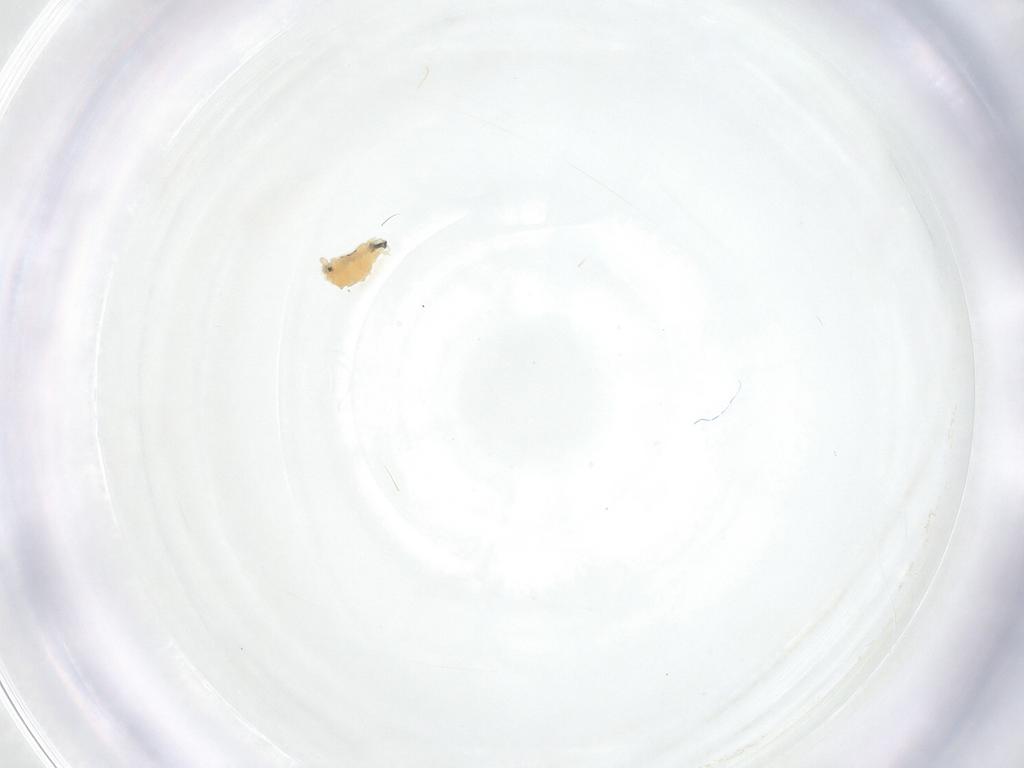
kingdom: Animalia
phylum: Arthropoda
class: Insecta
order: Diptera
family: Fergusoninidae
